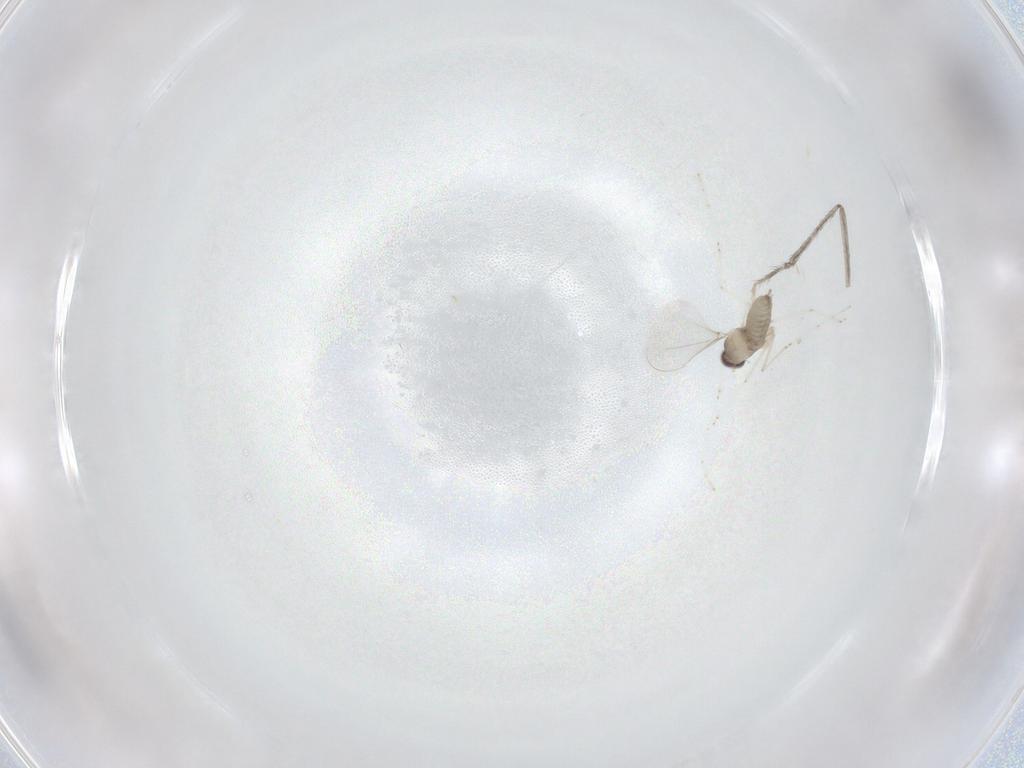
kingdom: Animalia
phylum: Arthropoda
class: Insecta
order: Diptera
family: Cecidomyiidae
